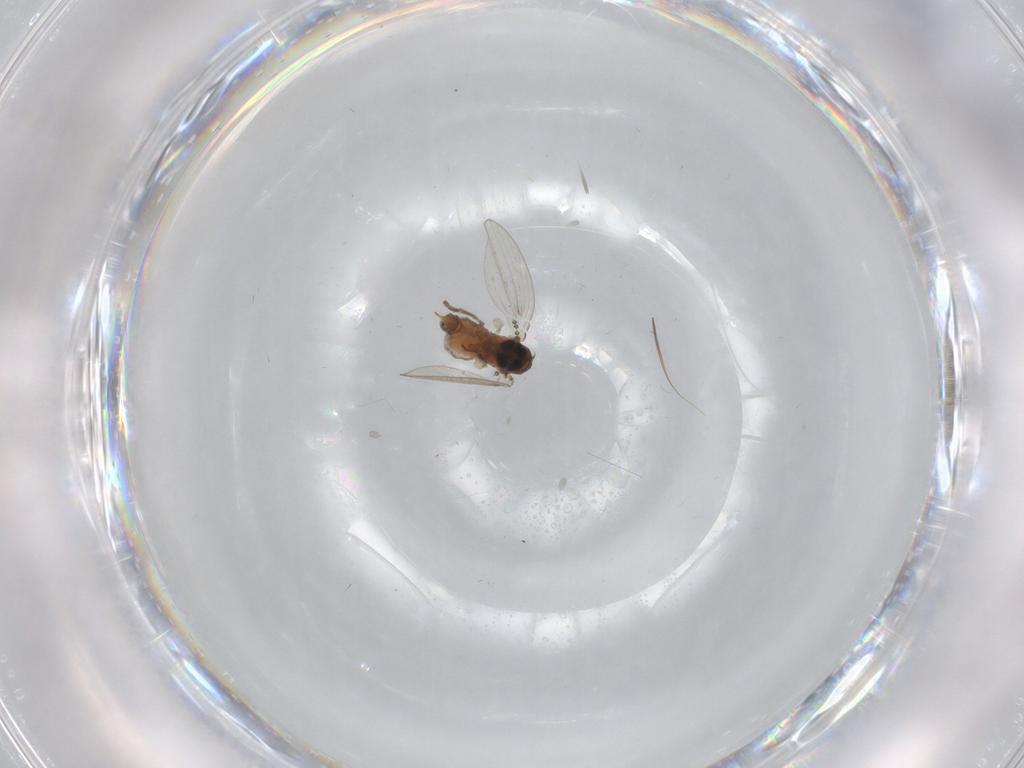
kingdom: Animalia
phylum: Arthropoda
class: Insecta
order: Diptera
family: Psychodidae
